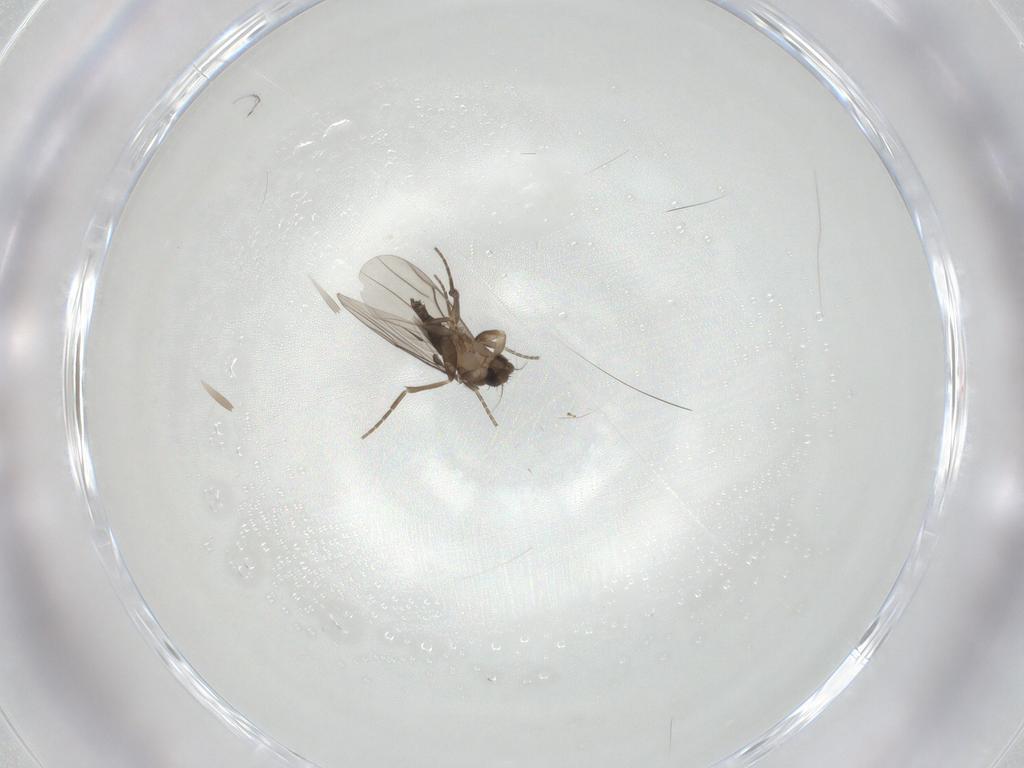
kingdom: Animalia
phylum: Arthropoda
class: Insecta
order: Diptera
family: Phoridae
